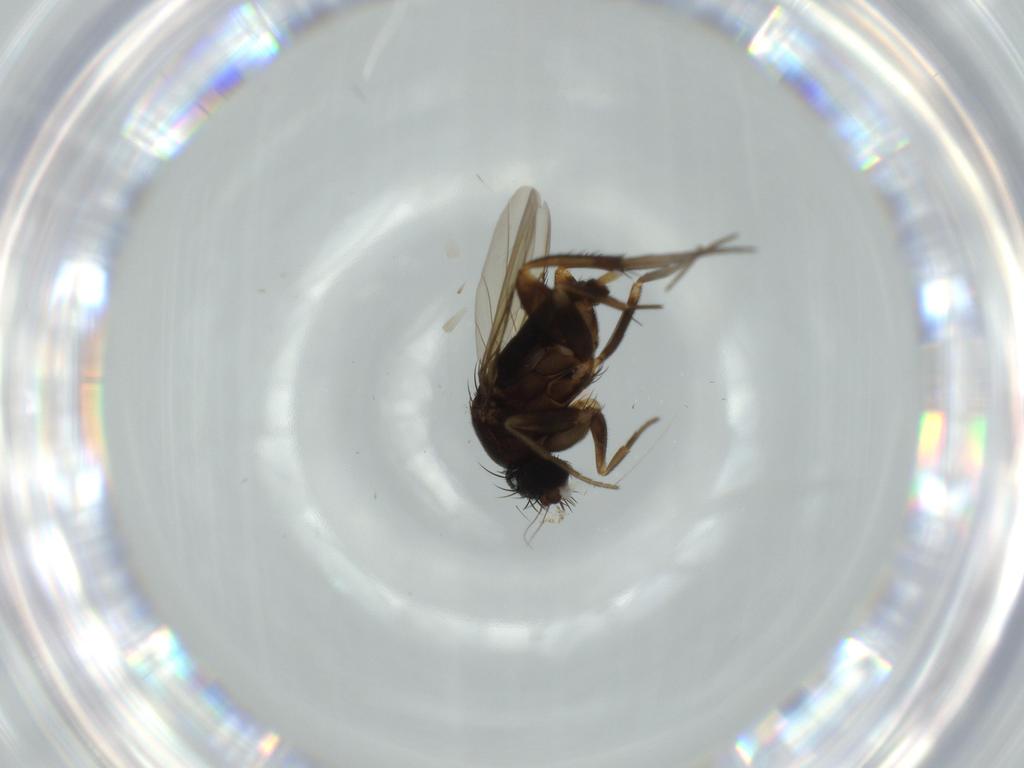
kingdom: Animalia
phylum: Arthropoda
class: Insecta
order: Diptera
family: Phoridae
